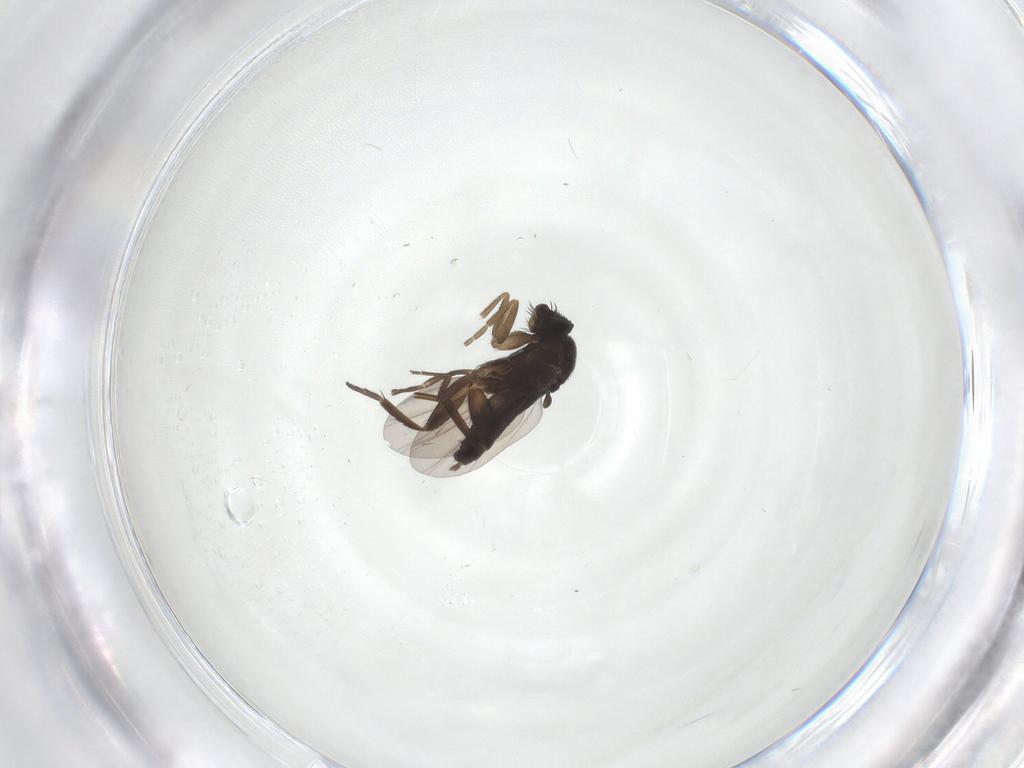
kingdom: Animalia
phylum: Arthropoda
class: Insecta
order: Diptera
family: Phoridae
